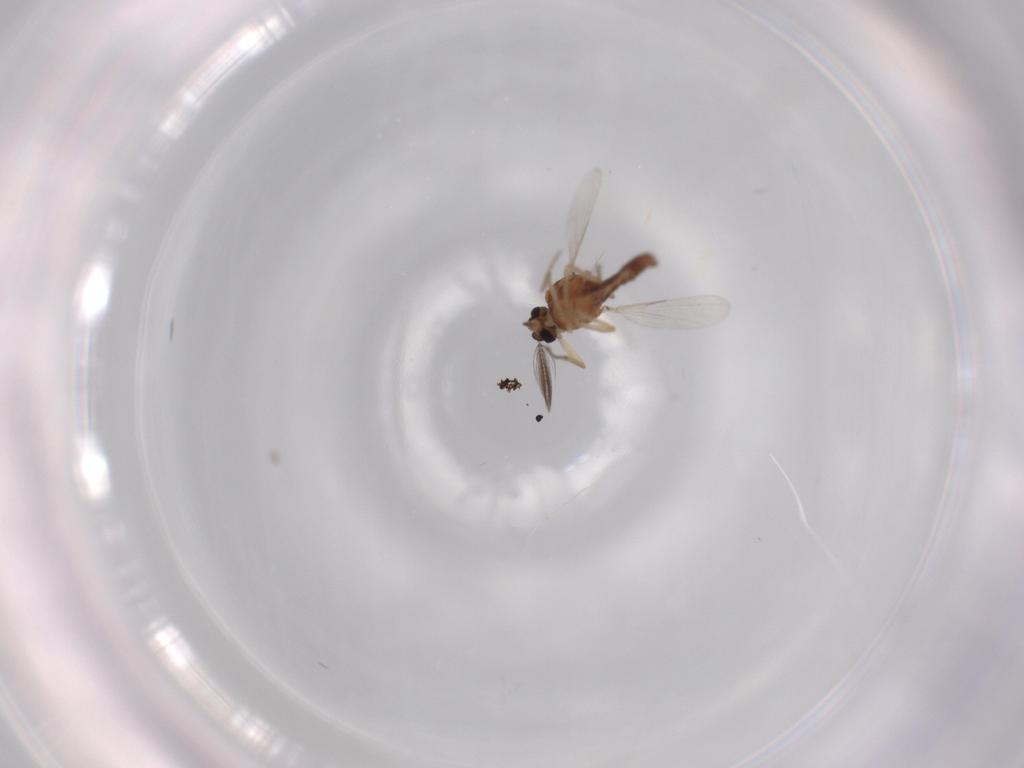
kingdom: Animalia
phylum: Arthropoda
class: Insecta
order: Diptera
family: Ceratopogonidae
